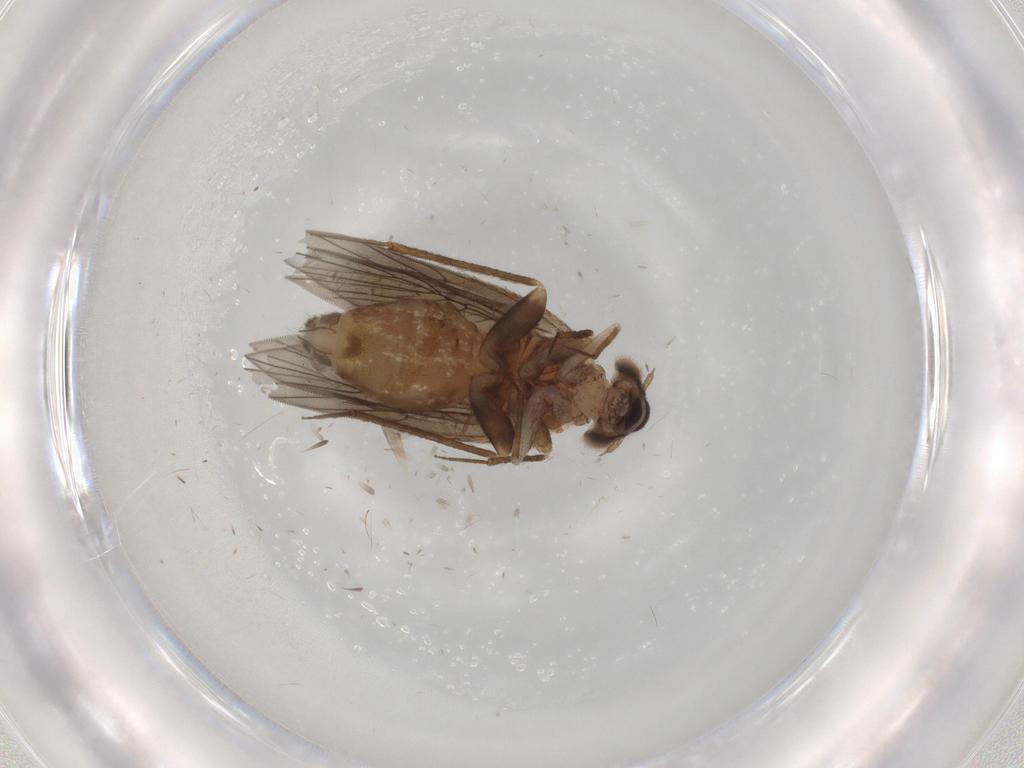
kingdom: Animalia
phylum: Arthropoda
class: Insecta
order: Psocodea
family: Lepidopsocidae
